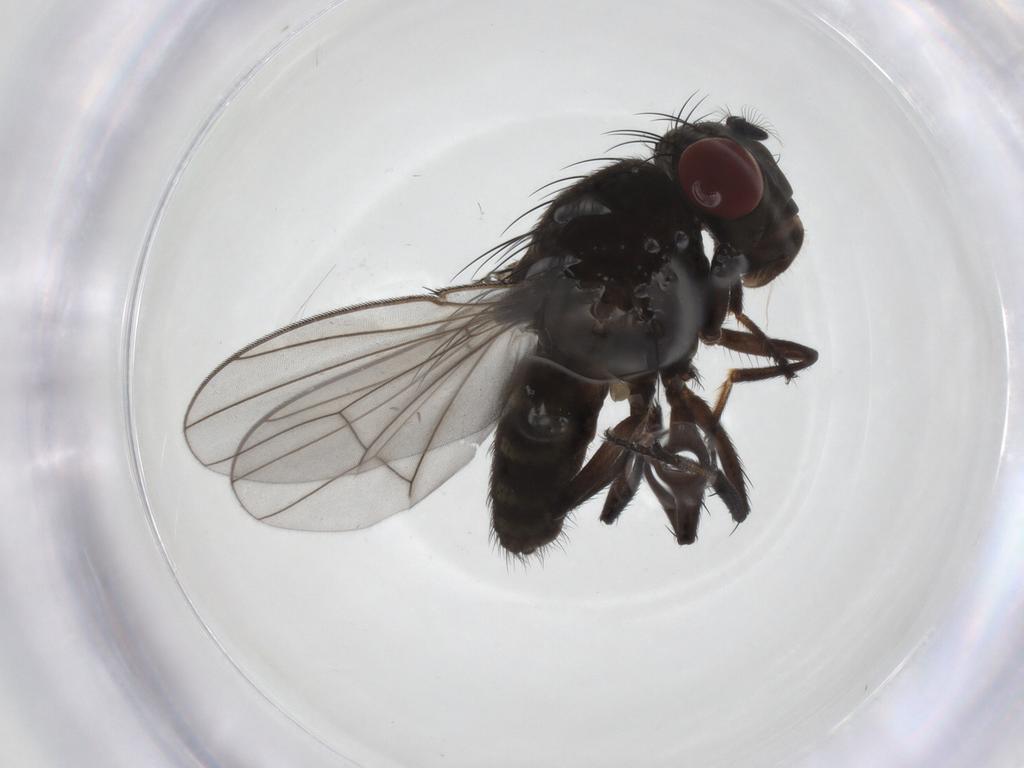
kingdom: Animalia
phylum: Arthropoda
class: Insecta
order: Diptera
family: Ephydridae
